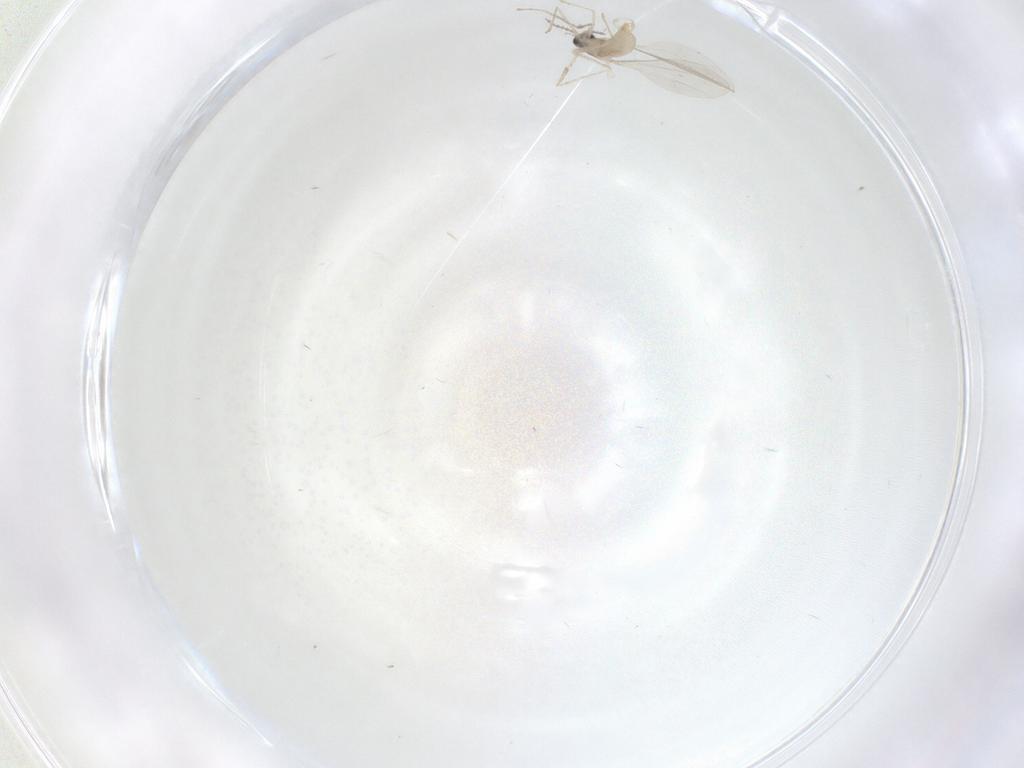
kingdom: Animalia
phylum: Arthropoda
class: Insecta
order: Diptera
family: Cecidomyiidae
